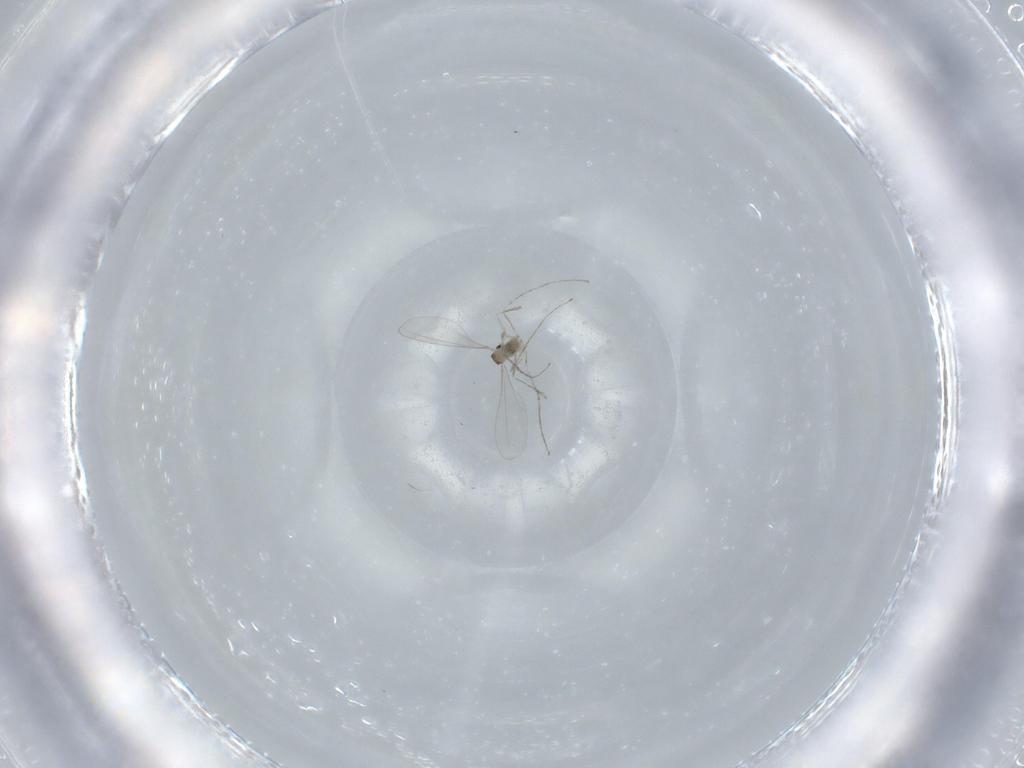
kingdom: Animalia
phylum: Arthropoda
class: Insecta
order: Diptera
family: Cecidomyiidae
